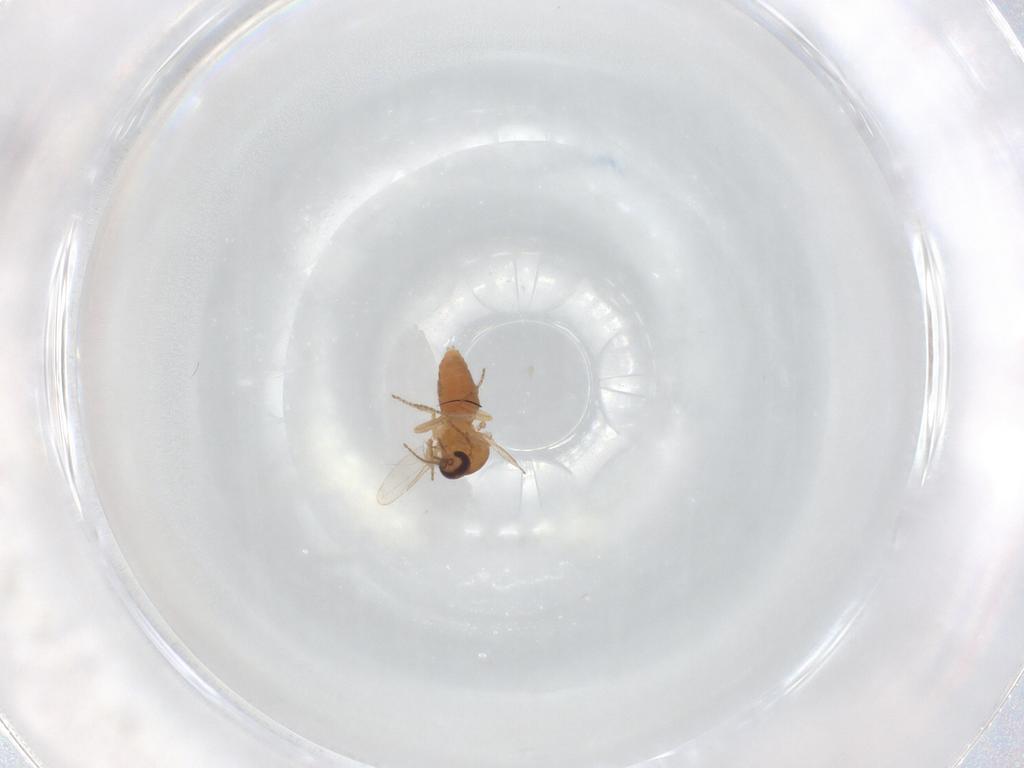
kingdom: Animalia
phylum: Arthropoda
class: Insecta
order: Diptera
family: Ceratopogonidae
